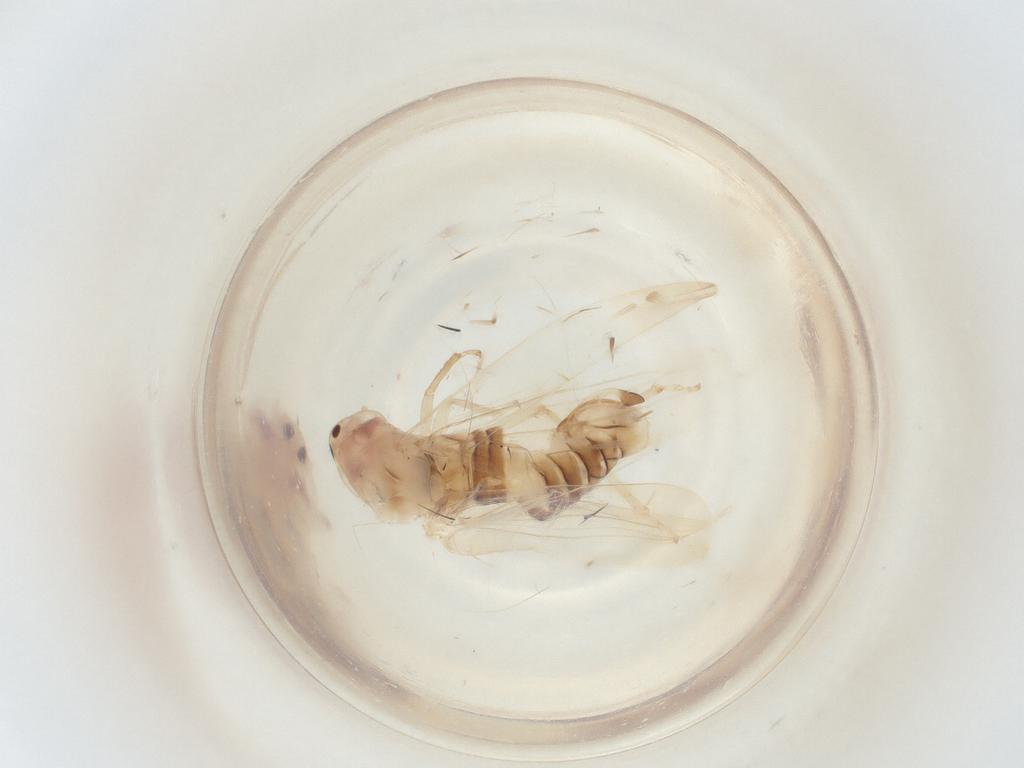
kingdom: Animalia
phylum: Arthropoda
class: Insecta
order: Hemiptera
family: Cicadellidae
